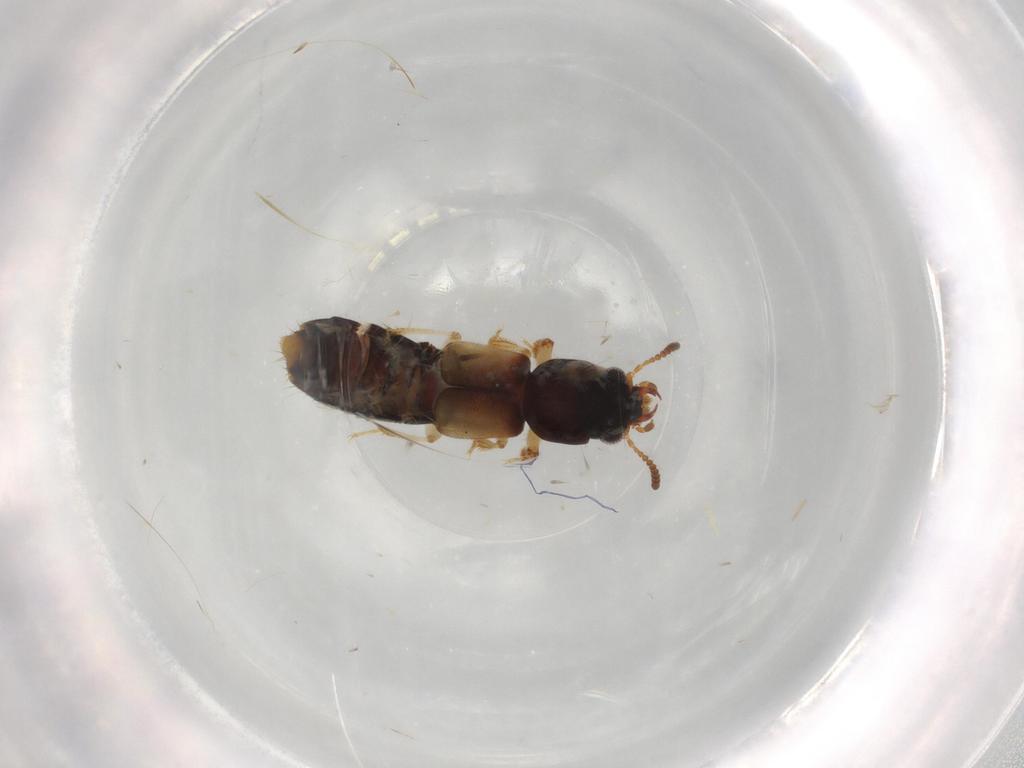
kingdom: Animalia
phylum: Arthropoda
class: Insecta
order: Coleoptera
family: Staphylinidae
